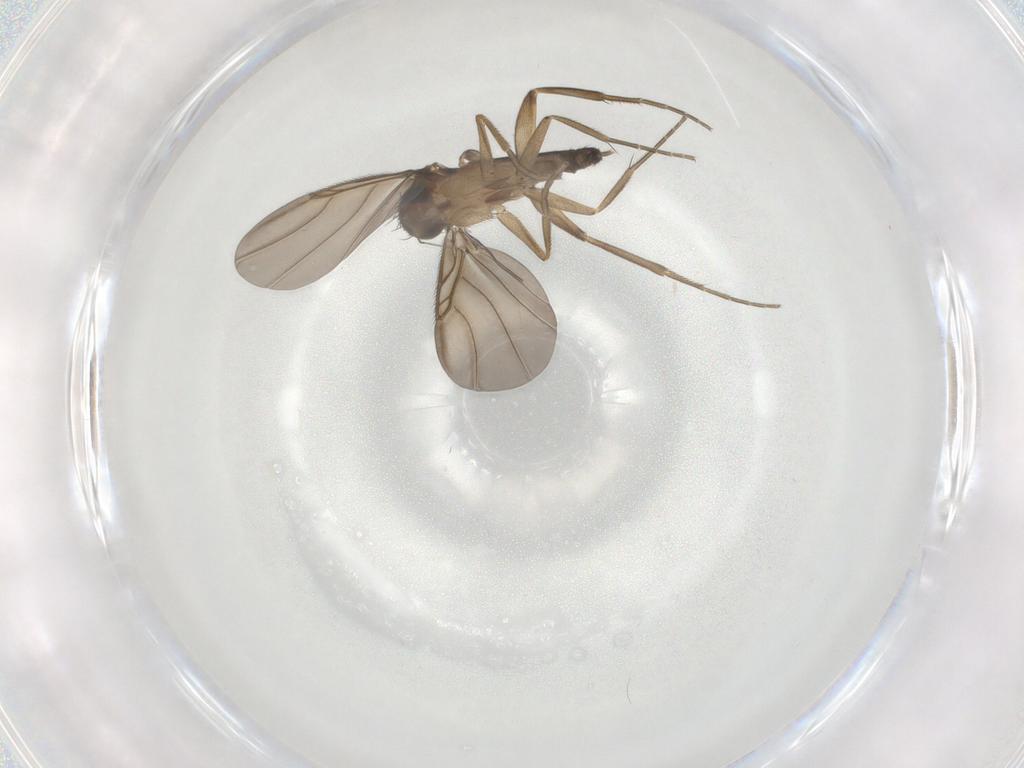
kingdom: Animalia
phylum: Arthropoda
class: Insecta
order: Diptera
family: Phoridae
